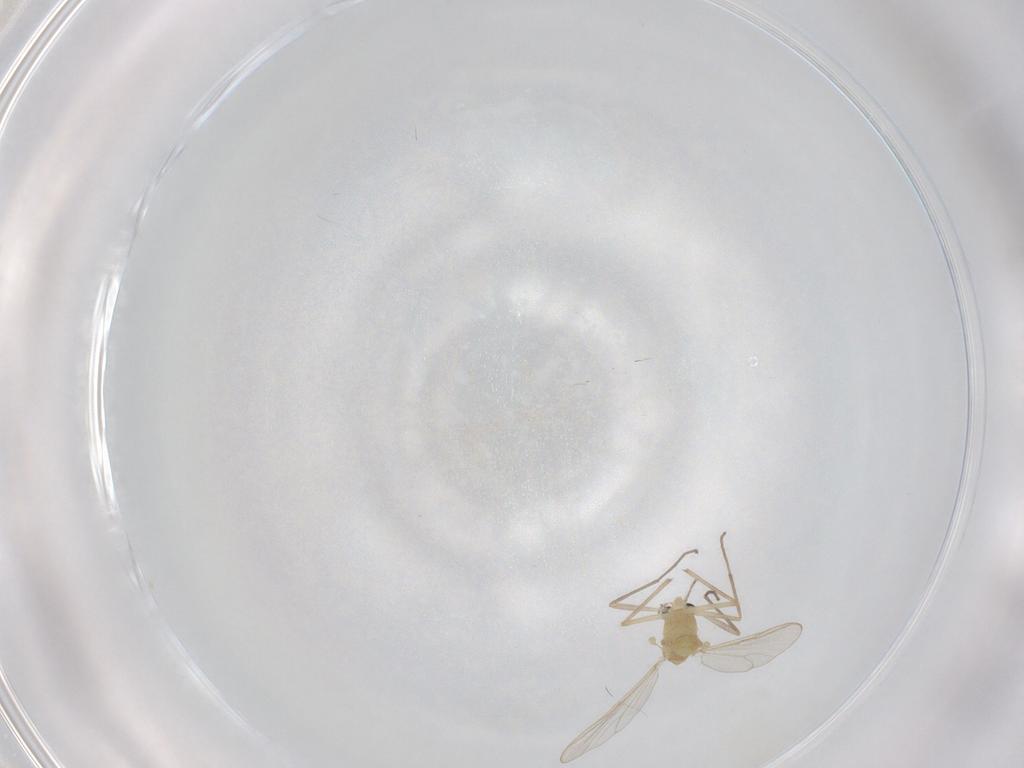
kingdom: Animalia
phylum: Arthropoda
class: Insecta
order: Diptera
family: Chironomidae
